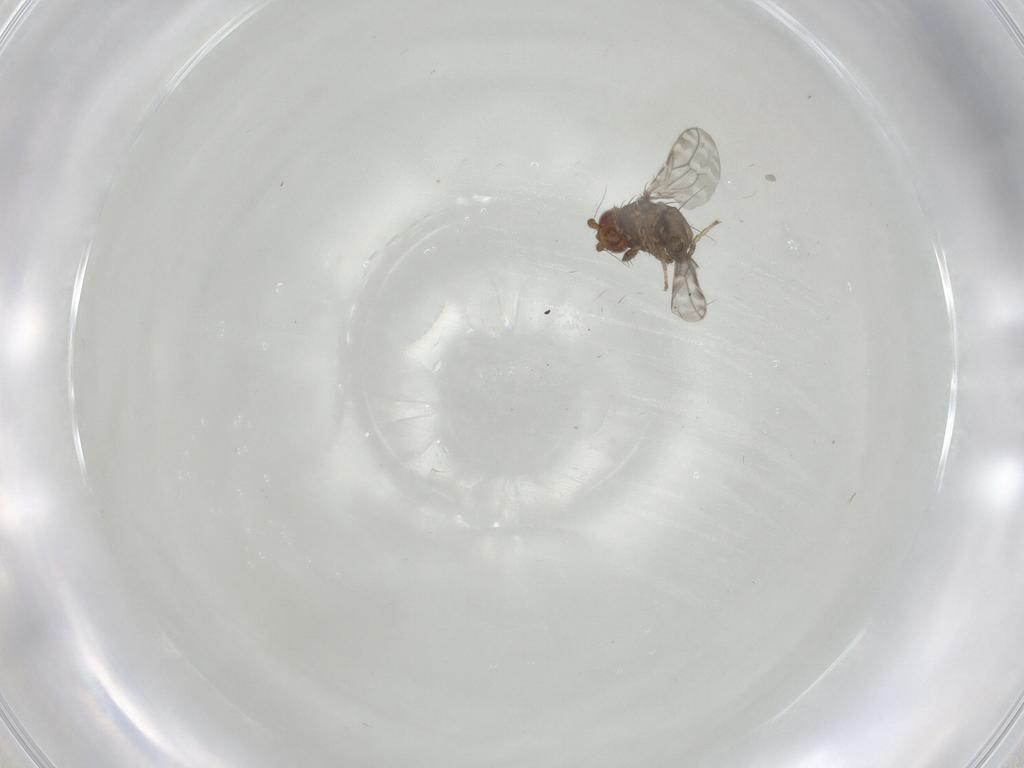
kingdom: Animalia
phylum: Arthropoda
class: Insecta
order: Diptera
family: Sphaeroceridae
